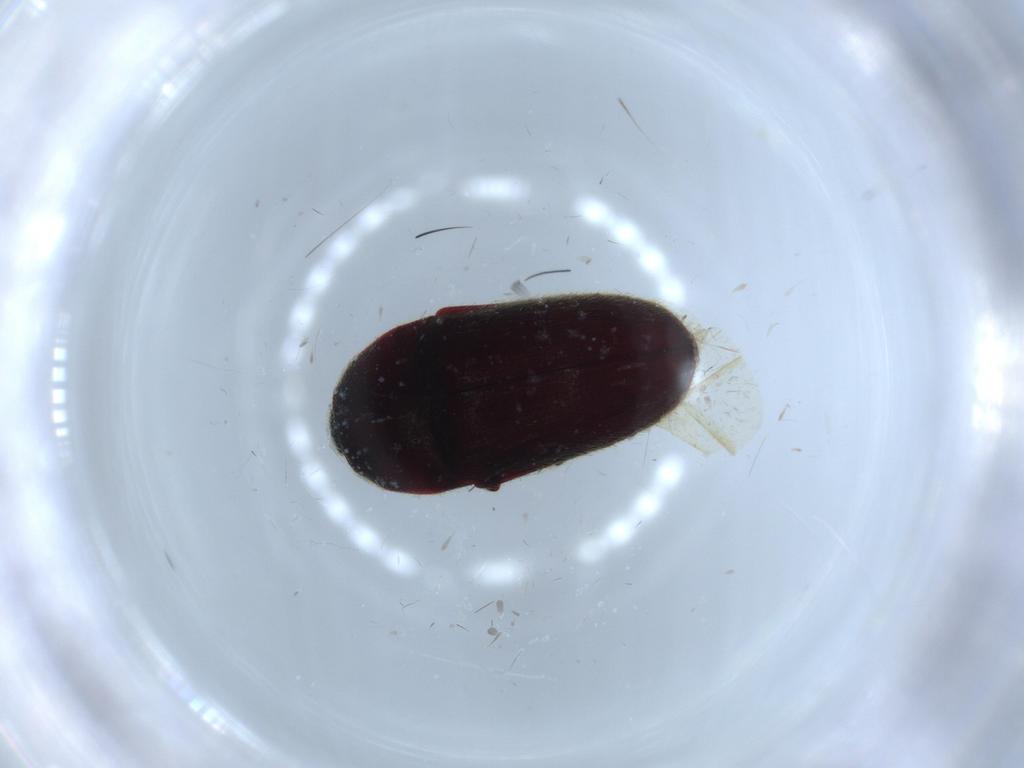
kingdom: Animalia
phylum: Arthropoda
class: Insecta
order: Coleoptera
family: Throscidae
